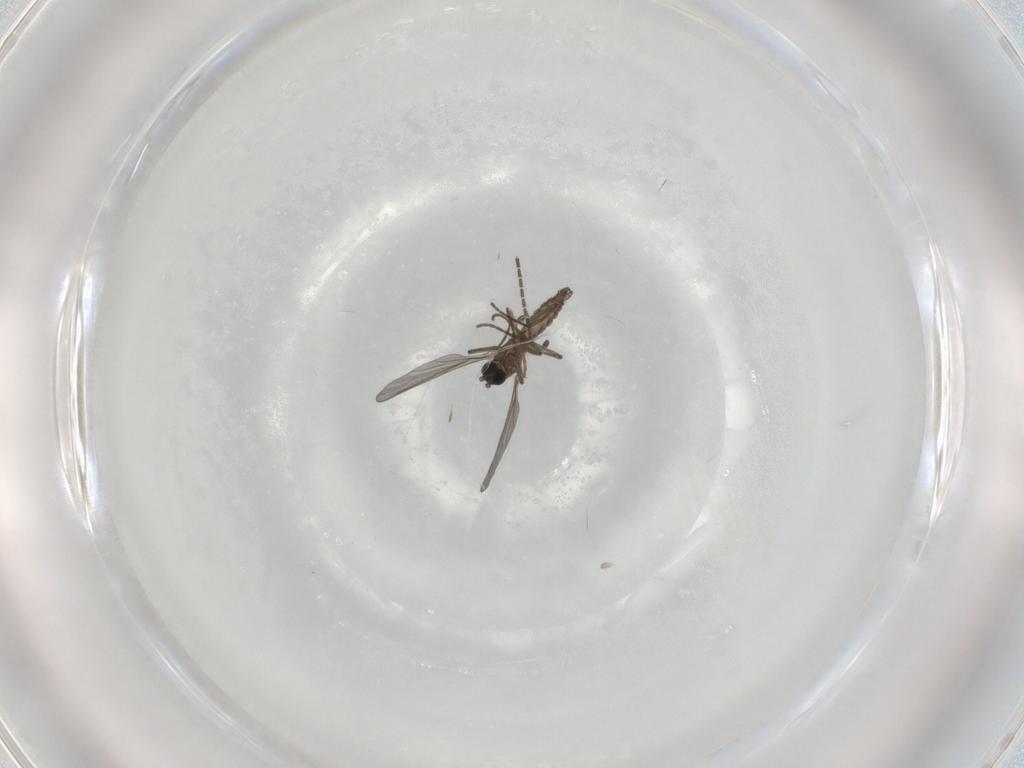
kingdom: Animalia
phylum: Arthropoda
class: Insecta
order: Diptera
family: Sciaridae
